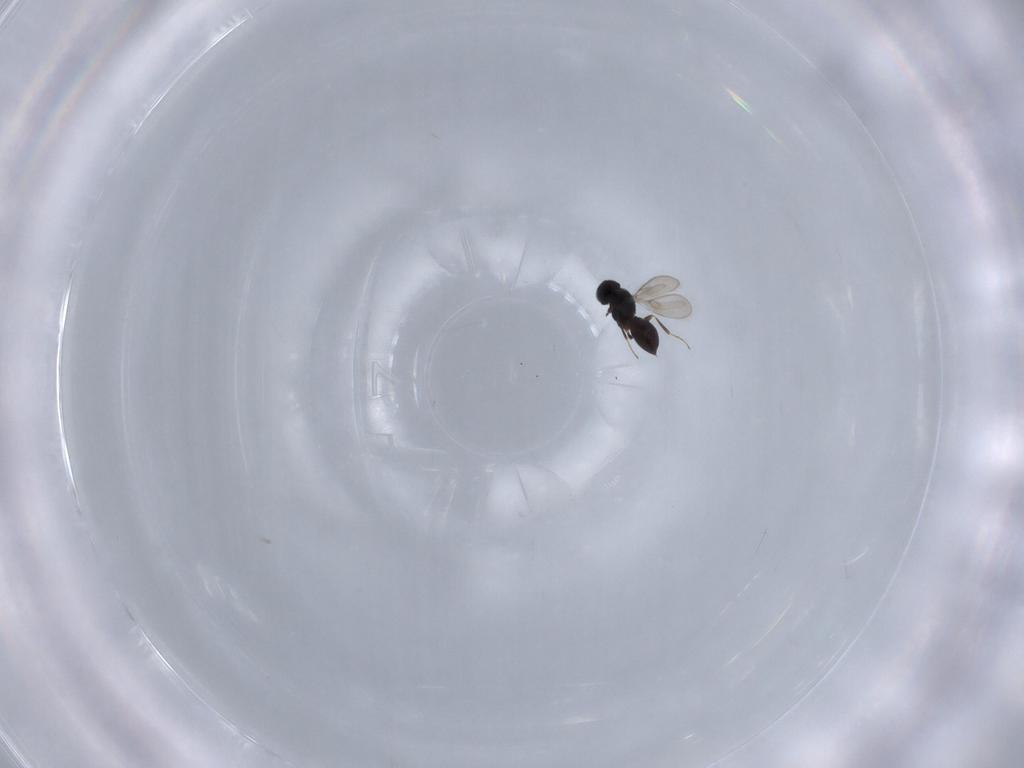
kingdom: Animalia
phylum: Arthropoda
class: Insecta
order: Hymenoptera
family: Scelionidae
